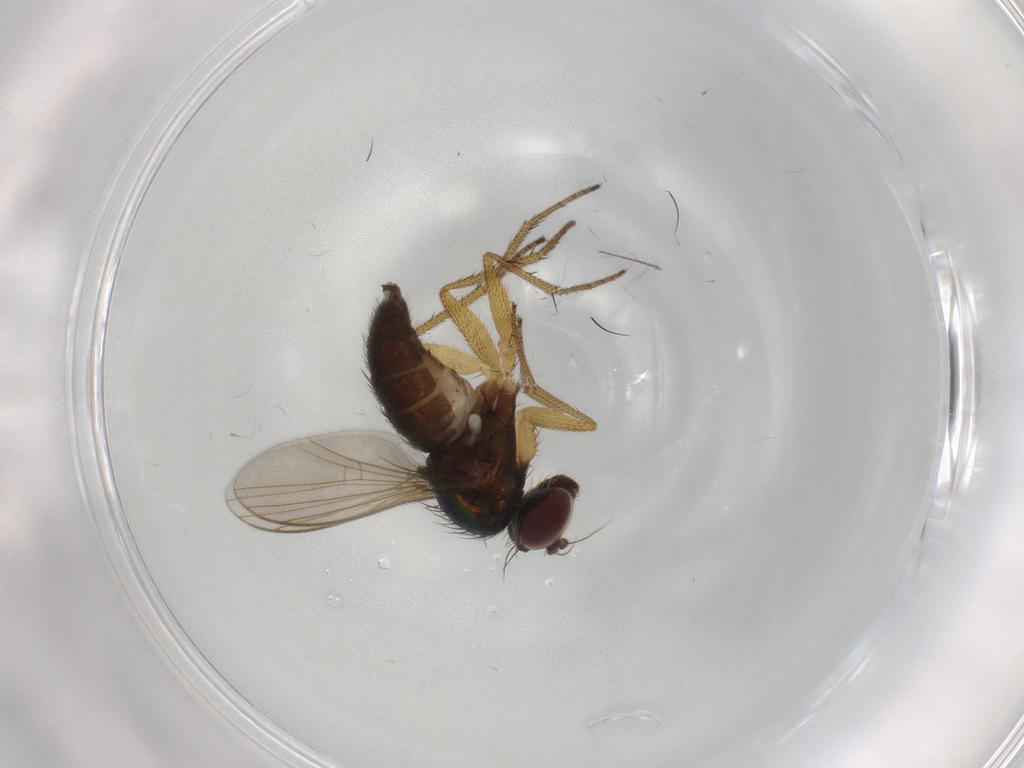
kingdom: Animalia
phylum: Arthropoda
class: Insecta
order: Diptera
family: Chironomidae
